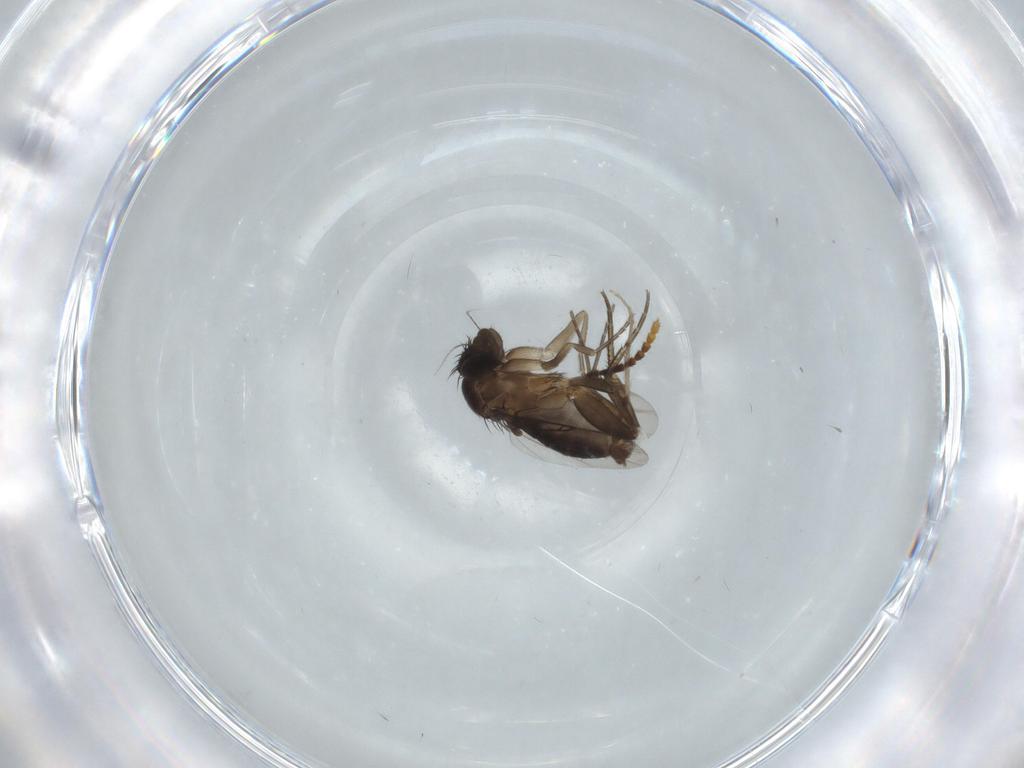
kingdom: Animalia
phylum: Arthropoda
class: Insecta
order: Diptera
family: Phoridae
